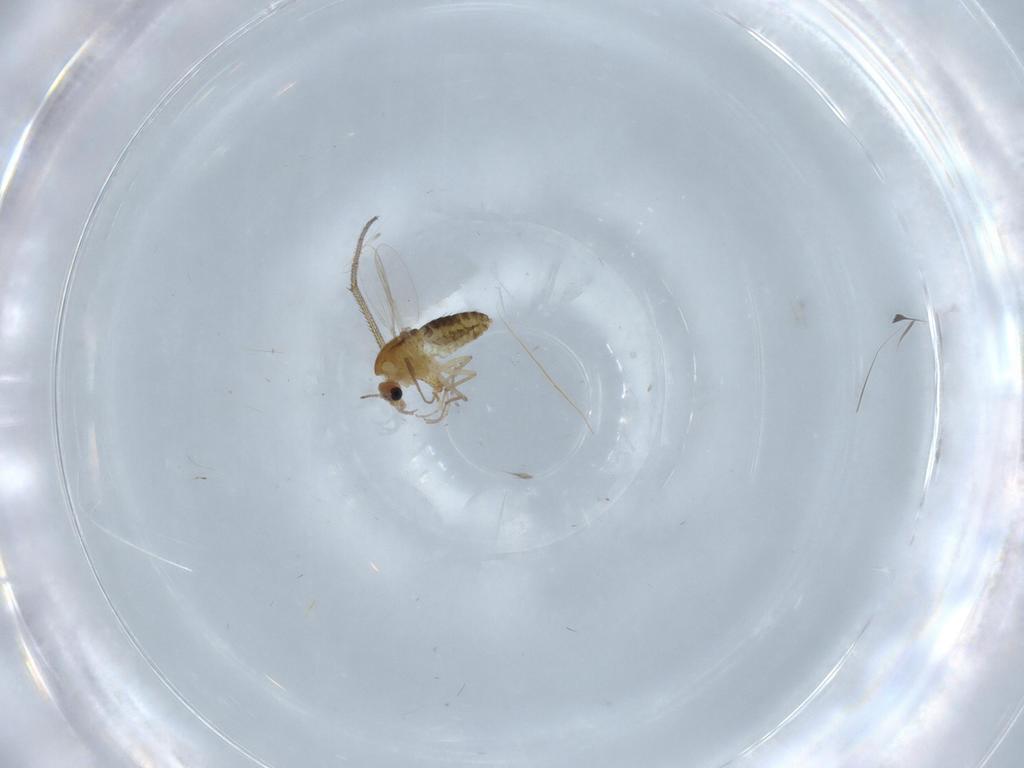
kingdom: Animalia
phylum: Arthropoda
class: Insecta
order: Diptera
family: Dolichopodidae
